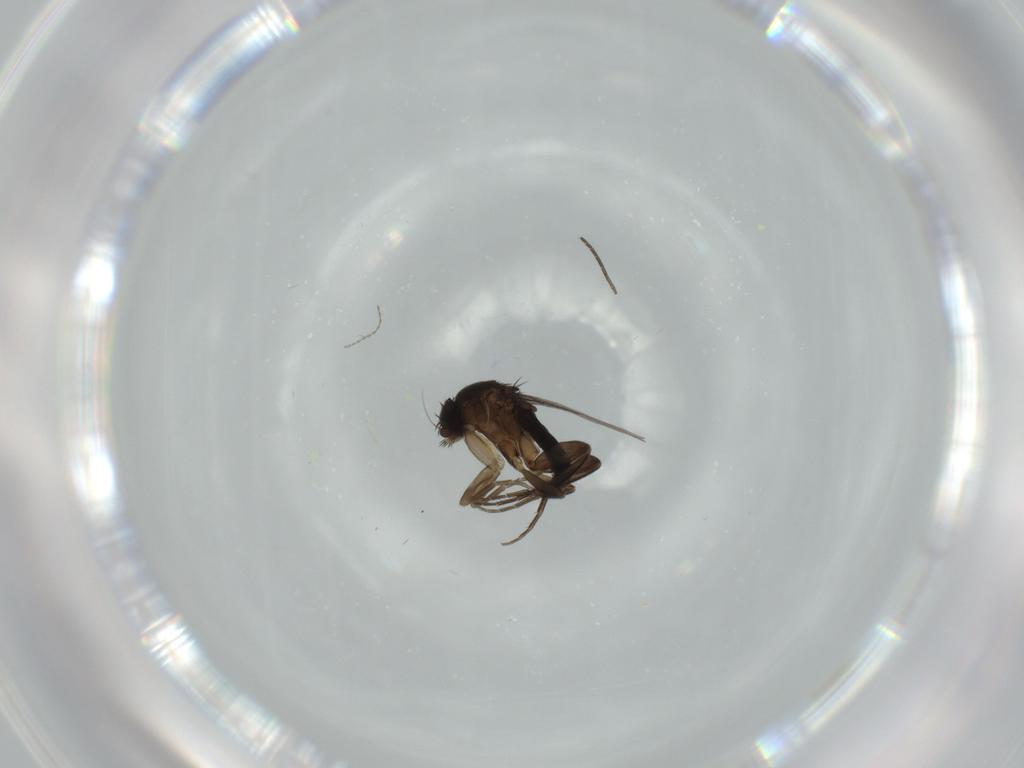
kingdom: Animalia
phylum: Arthropoda
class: Insecta
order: Diptera
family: Phoridae
